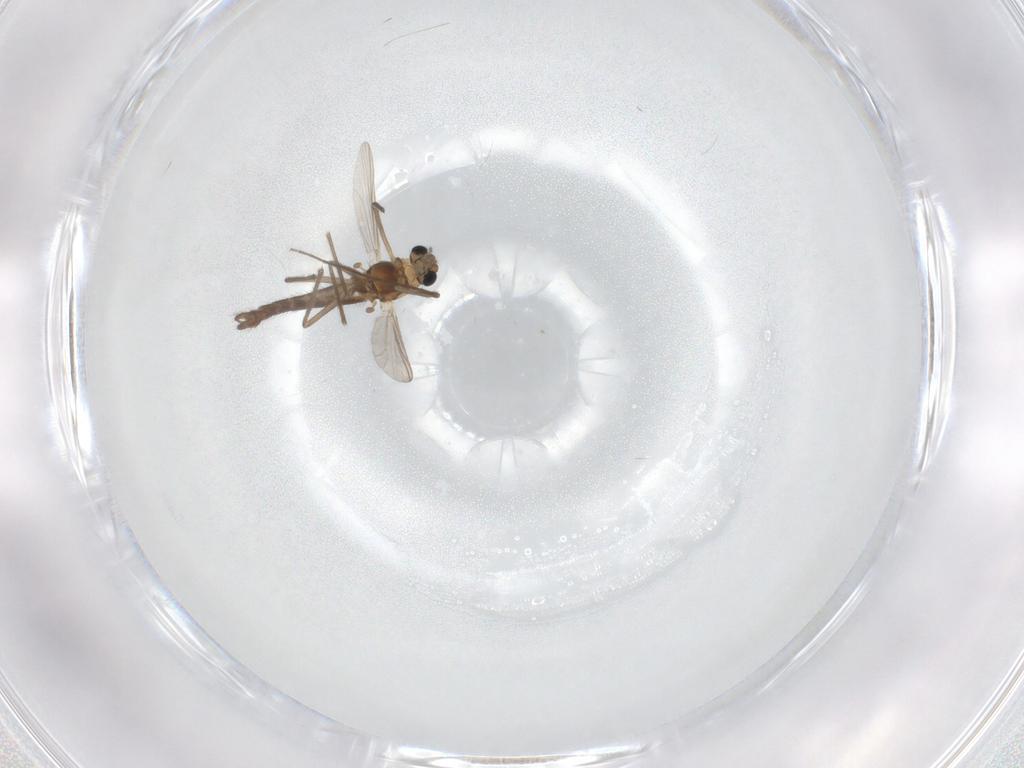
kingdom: Animalia
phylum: Arthropoda
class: Insecta
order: Diptera
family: Chironomidae
